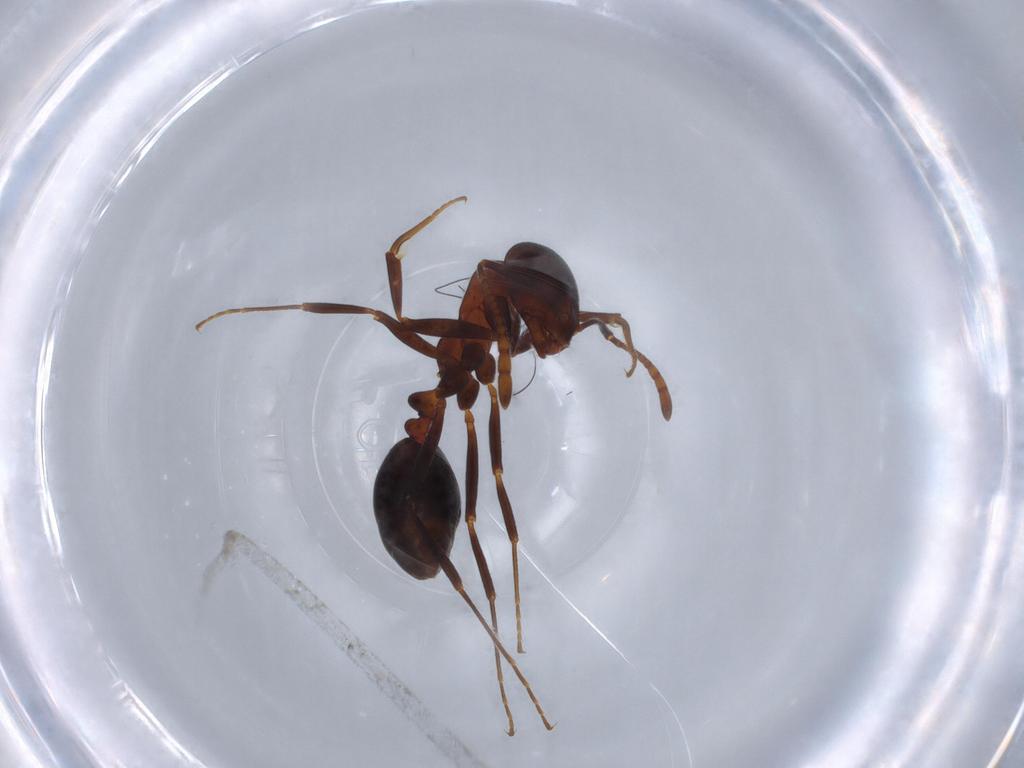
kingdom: Animalia
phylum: Arthropoda
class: Insecta
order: Hymenoptera
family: Formicidae
